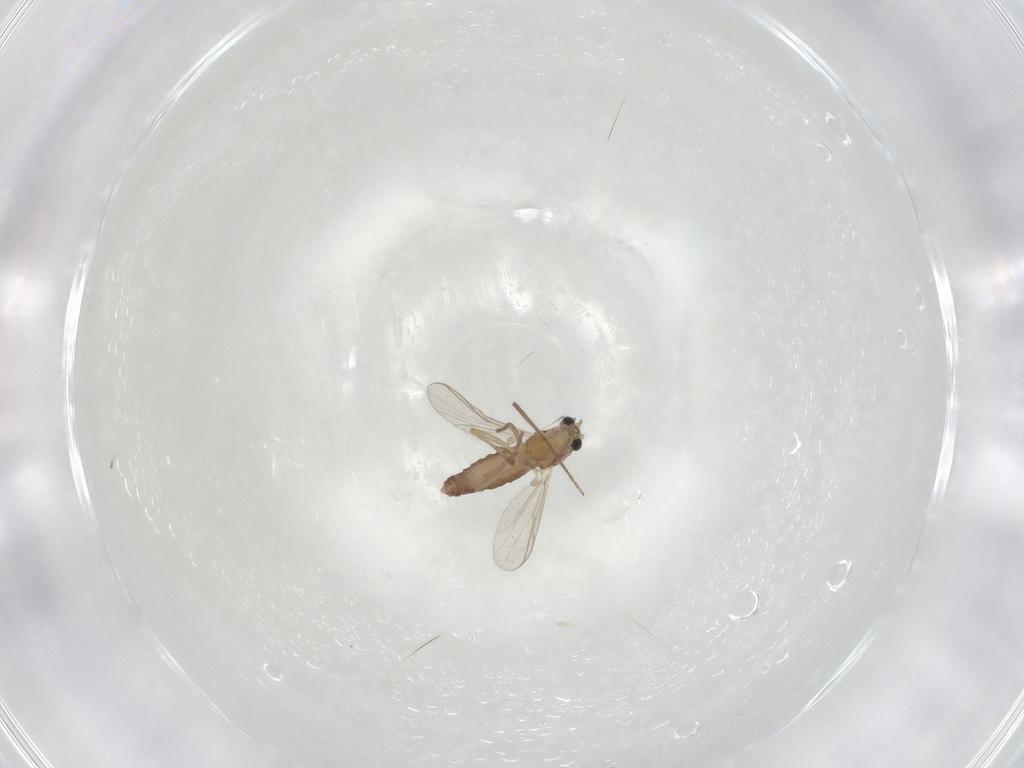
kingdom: Animalia
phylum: Arthropoda
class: Insecta
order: Diptera
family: Chironomidae
